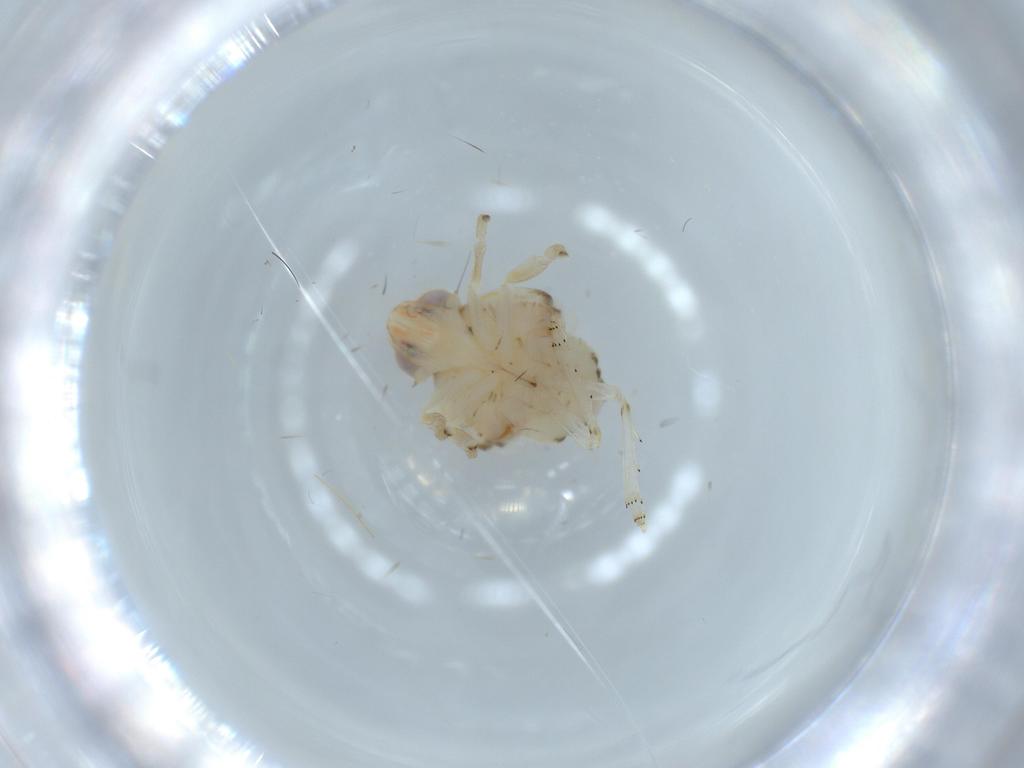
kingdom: Animalia
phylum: Arthropoda
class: Insecta
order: Hemiptera
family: Nogodinidae
